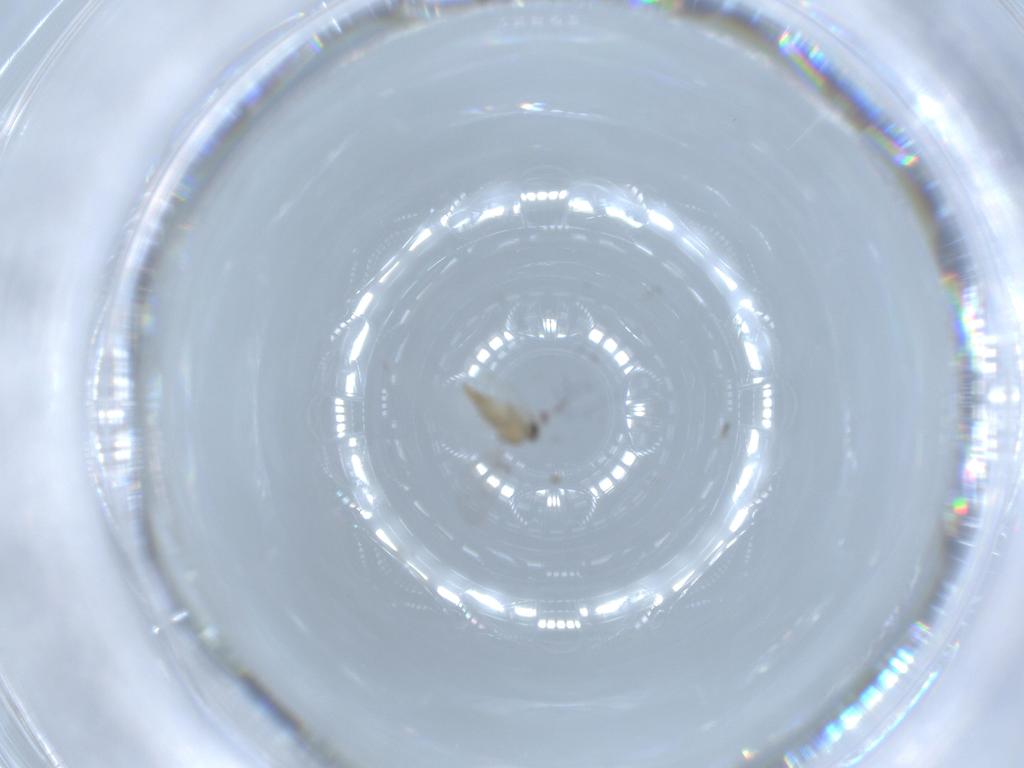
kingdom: Animalia
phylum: Arthropoda
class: Insecta
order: Diptera
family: Cecidomyiidae
